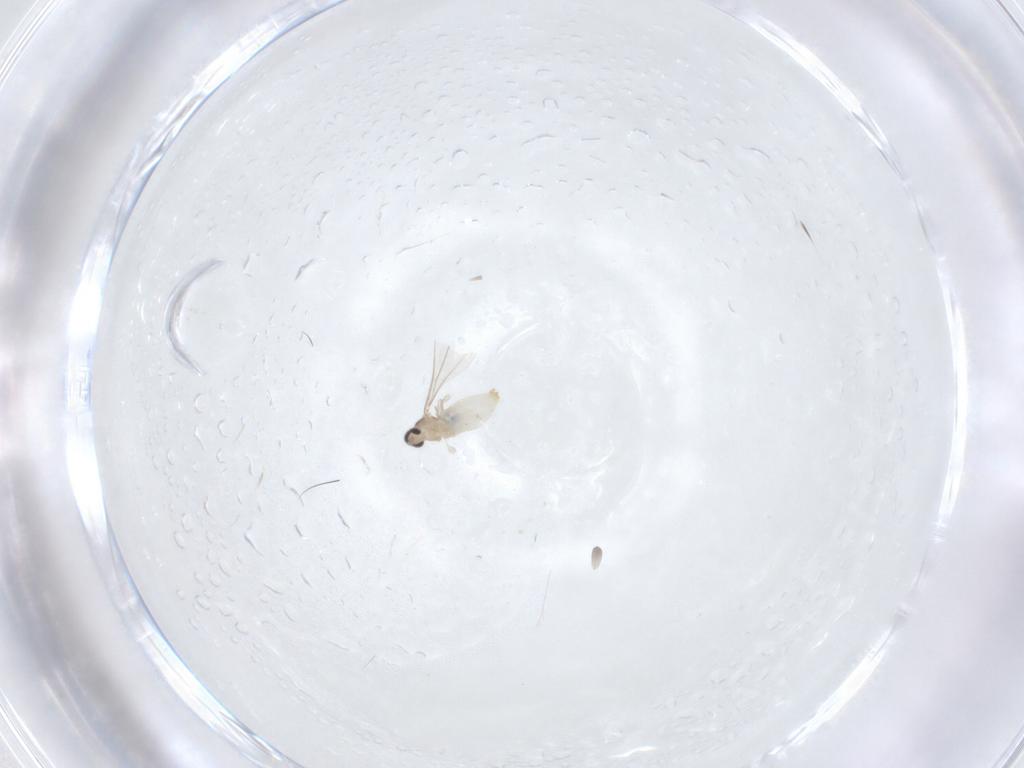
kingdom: Animalia
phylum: Arthropoda
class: Insecta
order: Diptera
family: Cecidomyiidae
